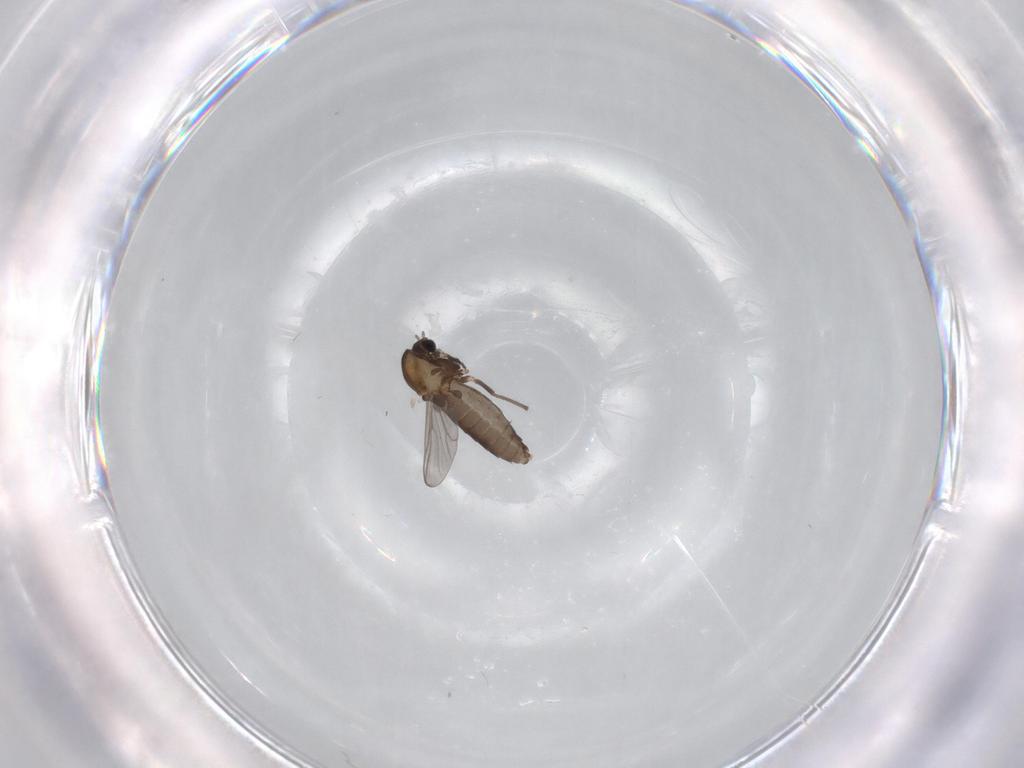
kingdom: Animalia
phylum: Arthropoda
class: Insecta
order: Diptera
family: Chironomidae
